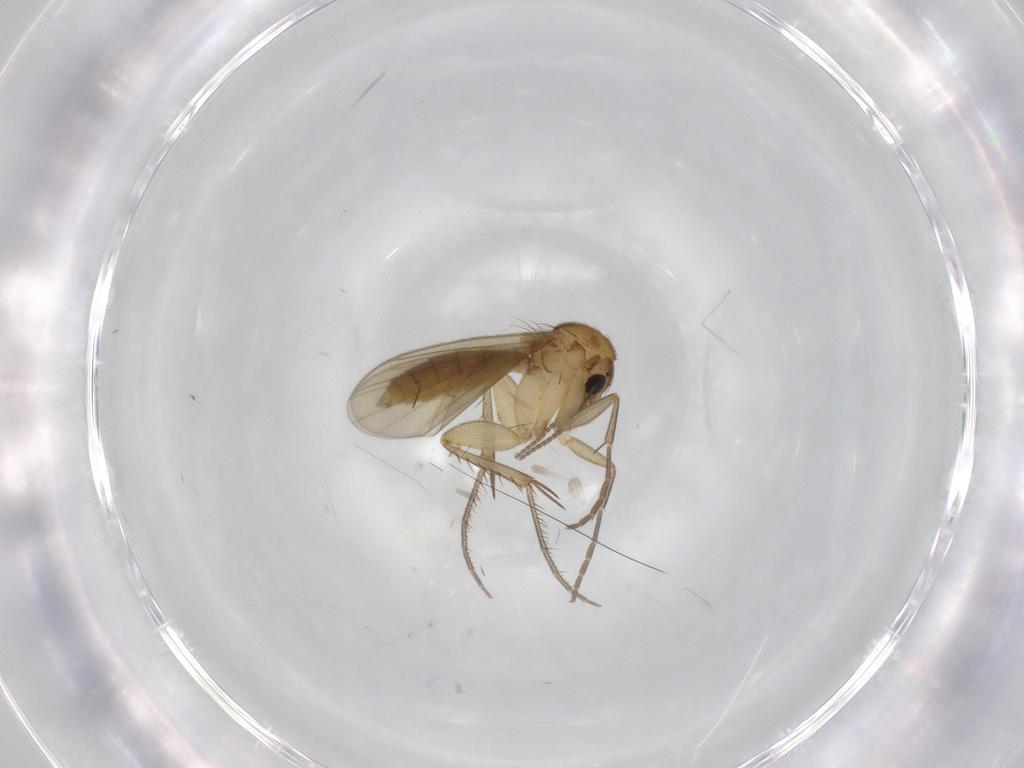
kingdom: Animalia
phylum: Arthropoda
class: Insecta
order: Diptera
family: Mycetophilidae
